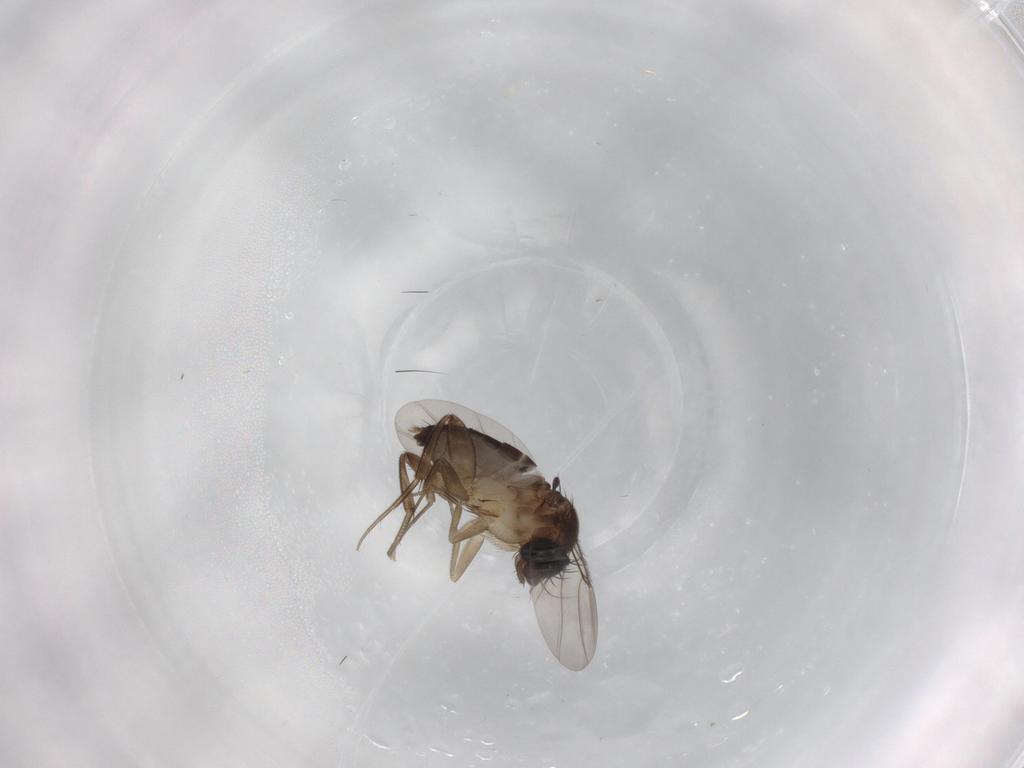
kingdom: Animalia
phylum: Arthropoda
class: Insecta
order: Diptera
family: Phoridae
